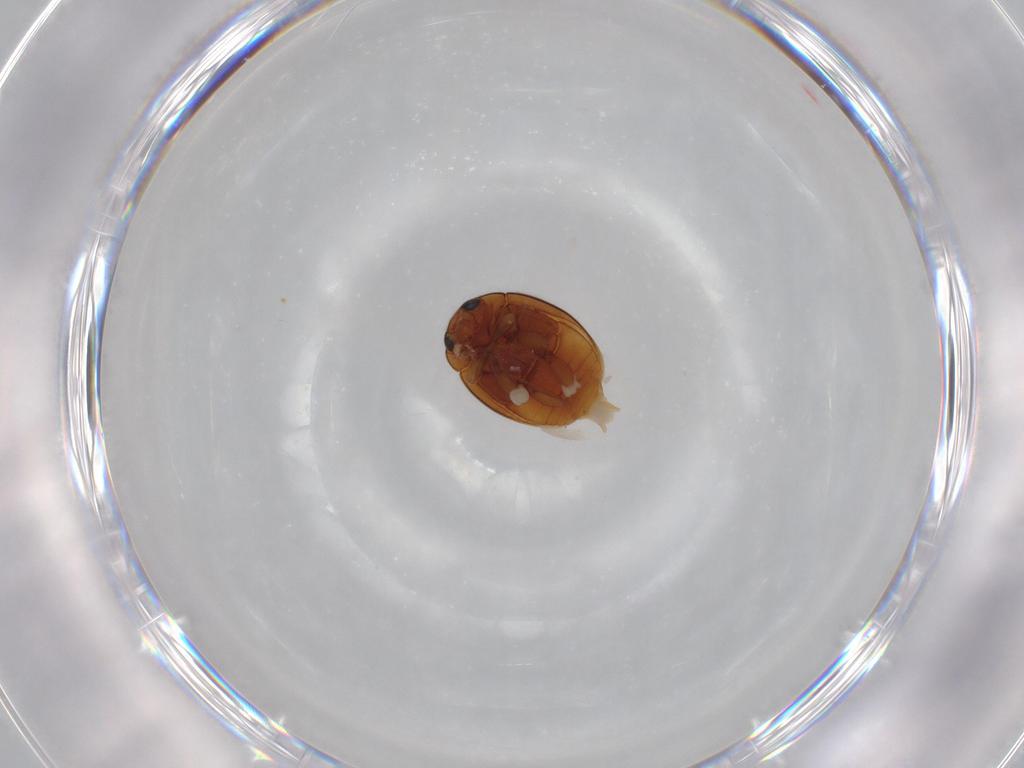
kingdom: Animalia
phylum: Arthropoda
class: Insecta
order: Coleoptera
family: Coccinellidae
